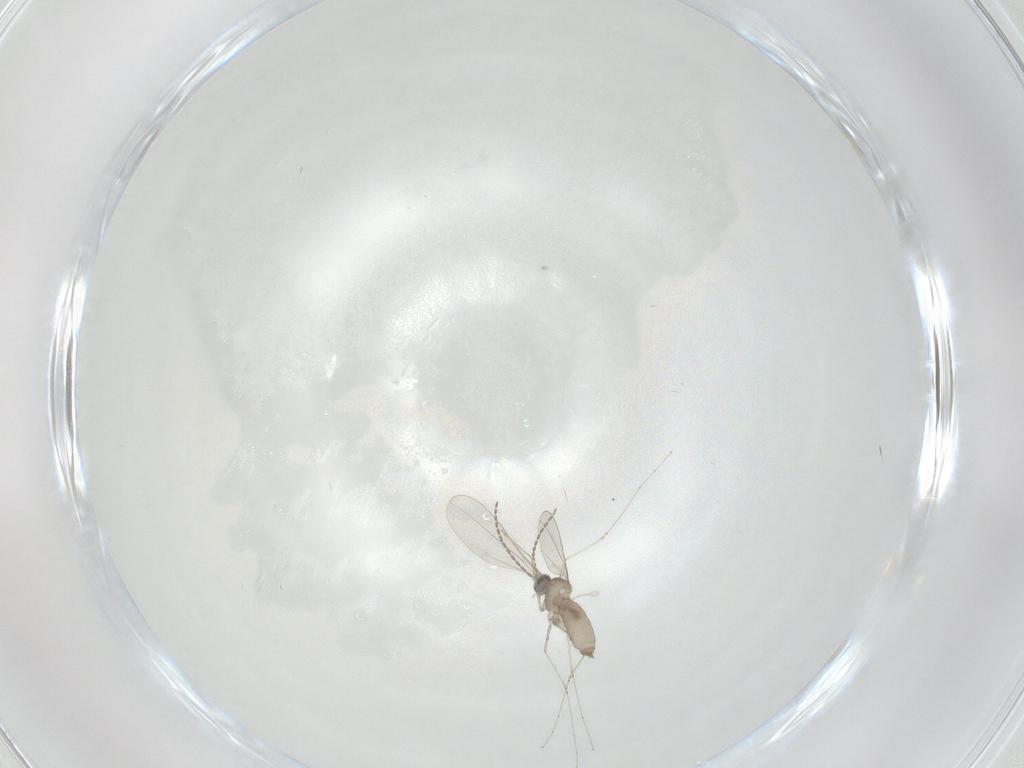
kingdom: Animalia
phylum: Arthropoda
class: Insecta
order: Diptera
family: Cecidomyiidae
